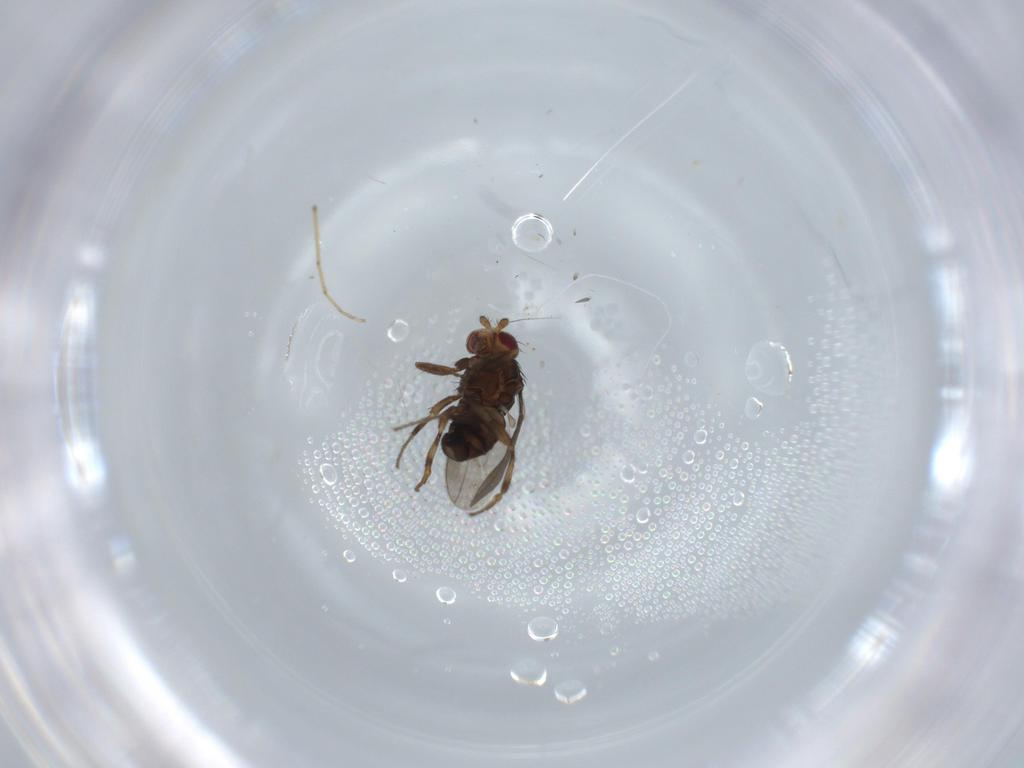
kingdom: Animalia
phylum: Arthropoda
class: Insecta
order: Diptera
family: Sphaeroceridae
